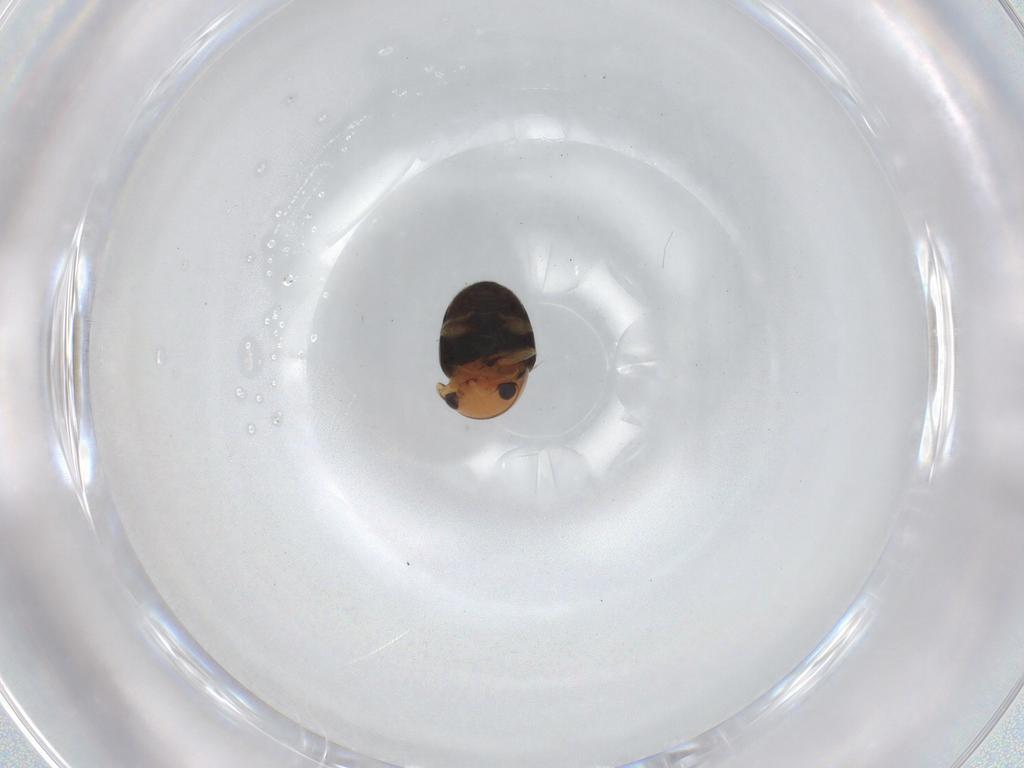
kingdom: Animalia
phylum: Arthropoda
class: Insecta
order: Coleoptera
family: Cybocephalidae
